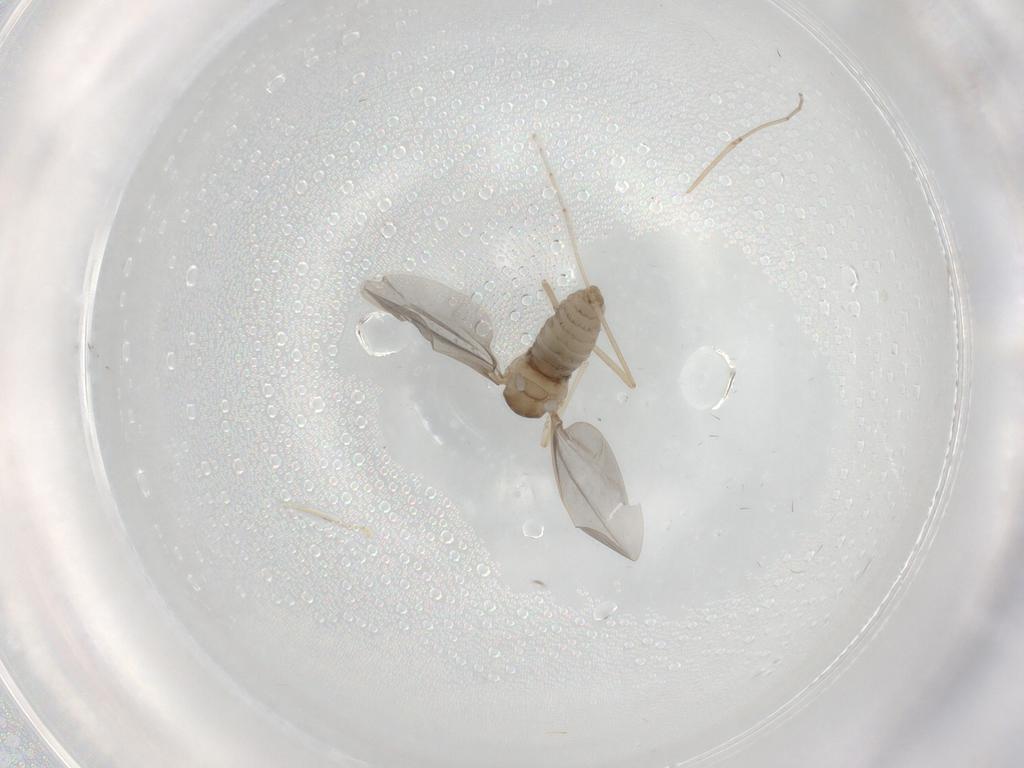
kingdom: Animalia
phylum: Arthropoda
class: Insecta
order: Diptera
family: Cecidomyiidae
